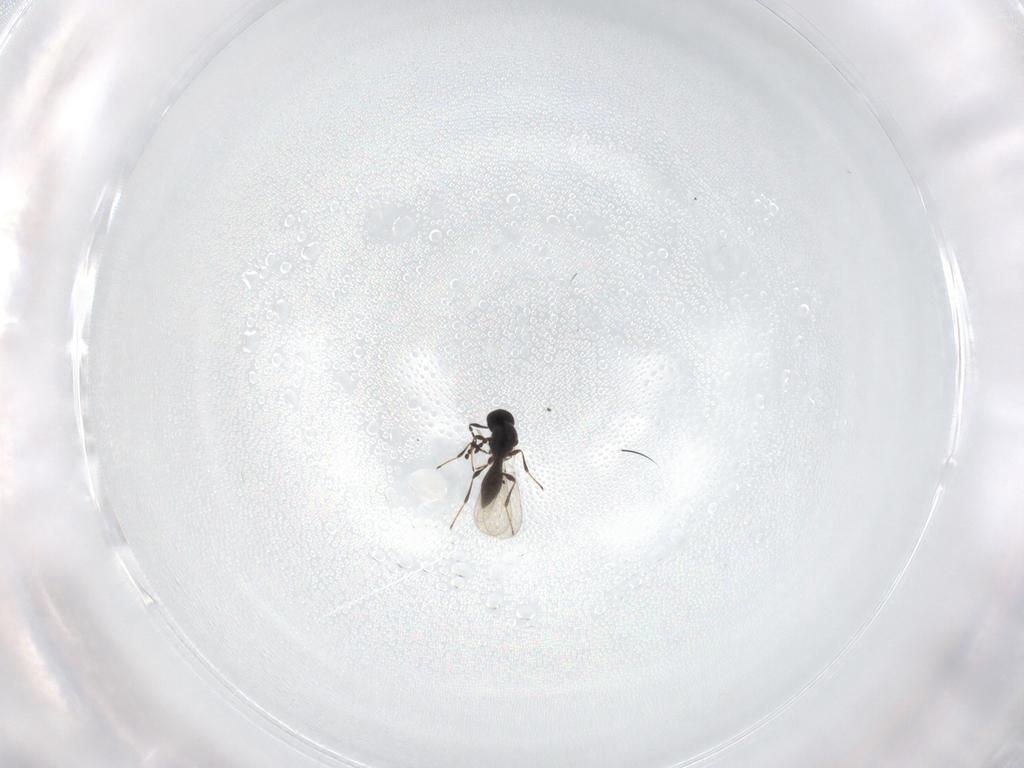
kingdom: Animalia
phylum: Arthropoda
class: Insecta
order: Hymenoptera
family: Platygastridae
